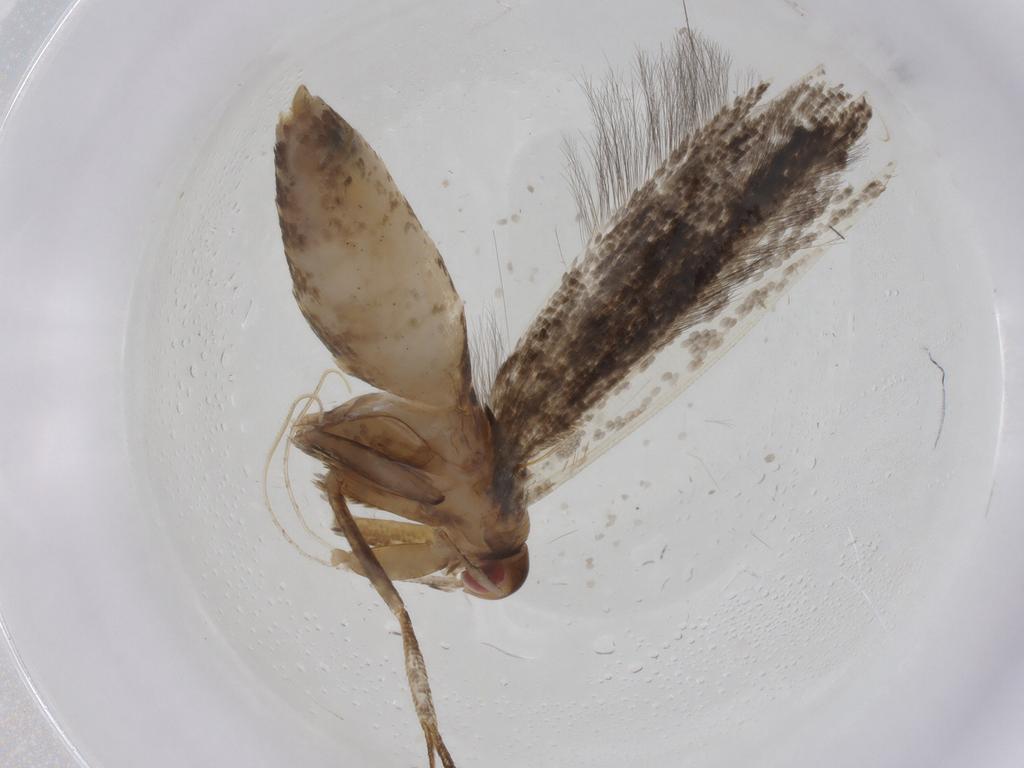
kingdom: Animalia
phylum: Arthropoda
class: Insecta
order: Lepidoptera
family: Cosmopterigidae
